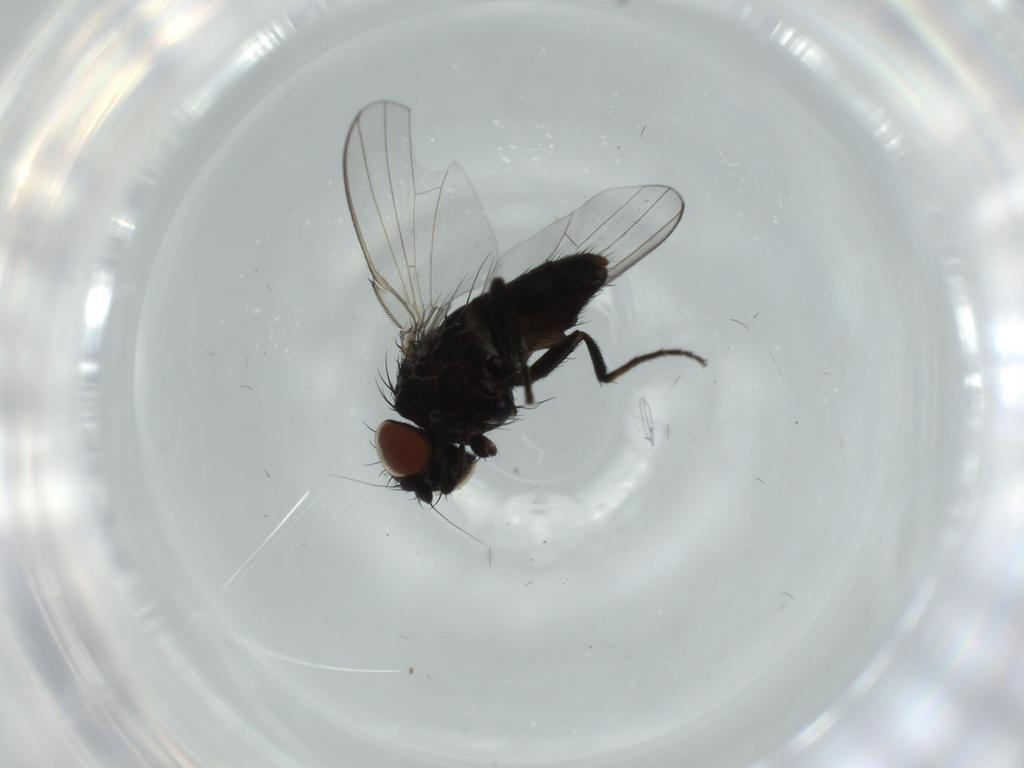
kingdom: Animalia
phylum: Arthropoda
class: Insecta
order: Diptera
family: Milichiidae
